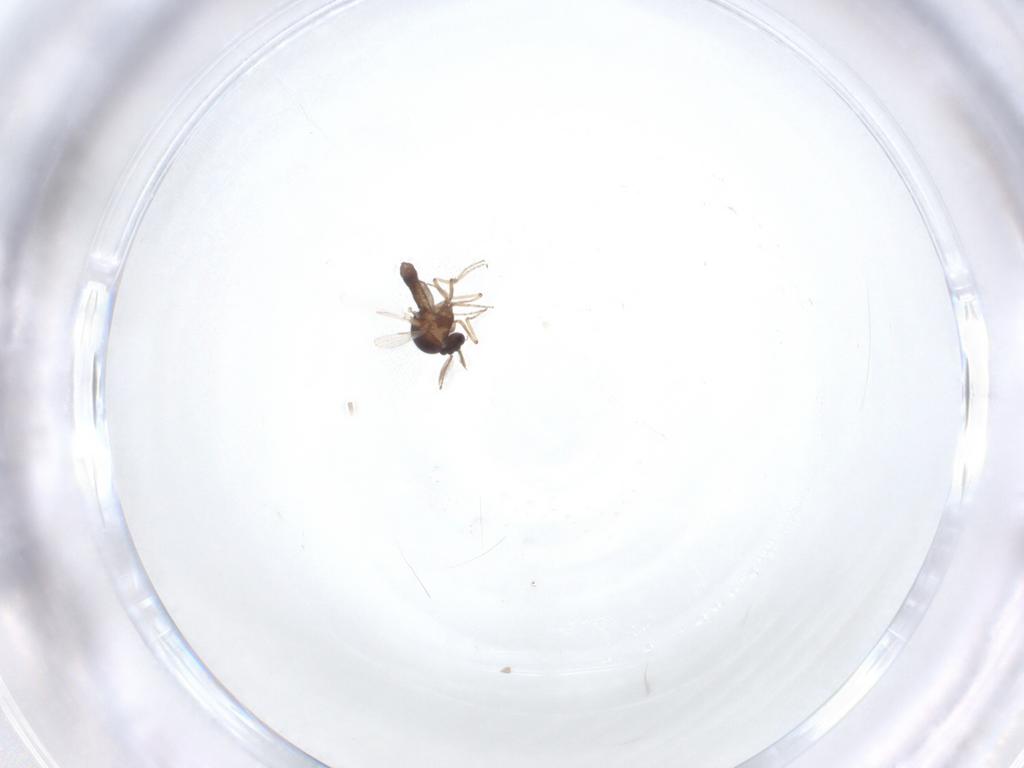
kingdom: Animalia
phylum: Arthropoda
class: Insecta
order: Diptera
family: Ceratopogonidae
